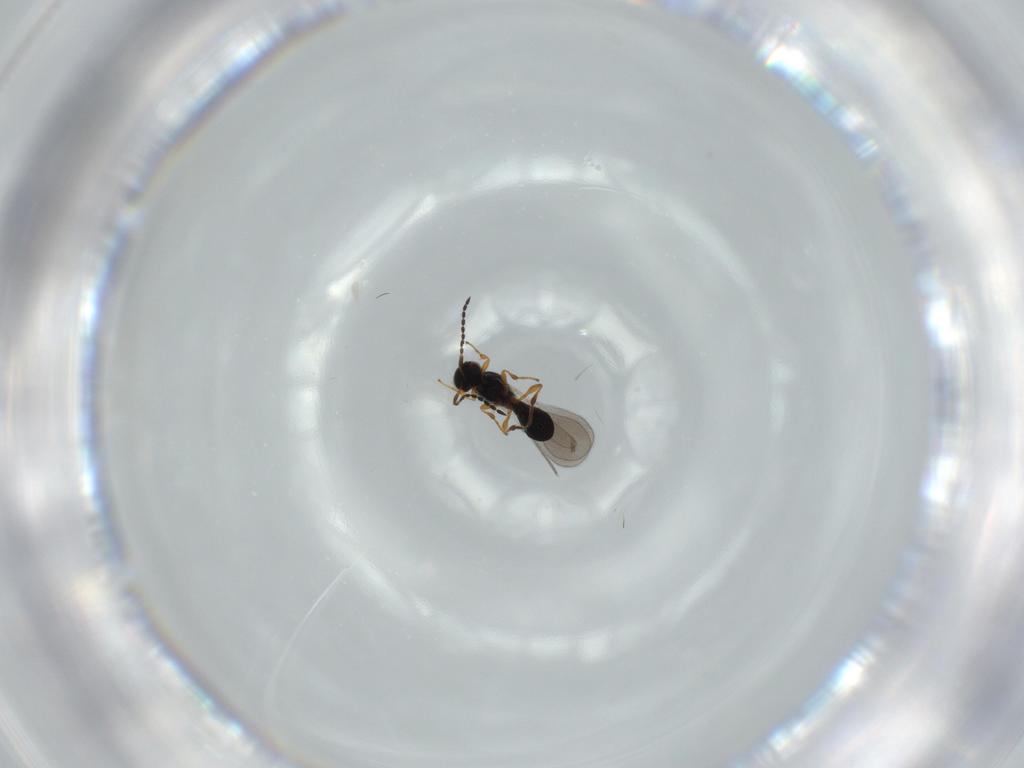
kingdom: Animalia
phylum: Arthropoda
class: Insecta
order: Hymenoptera
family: Platygastridae
